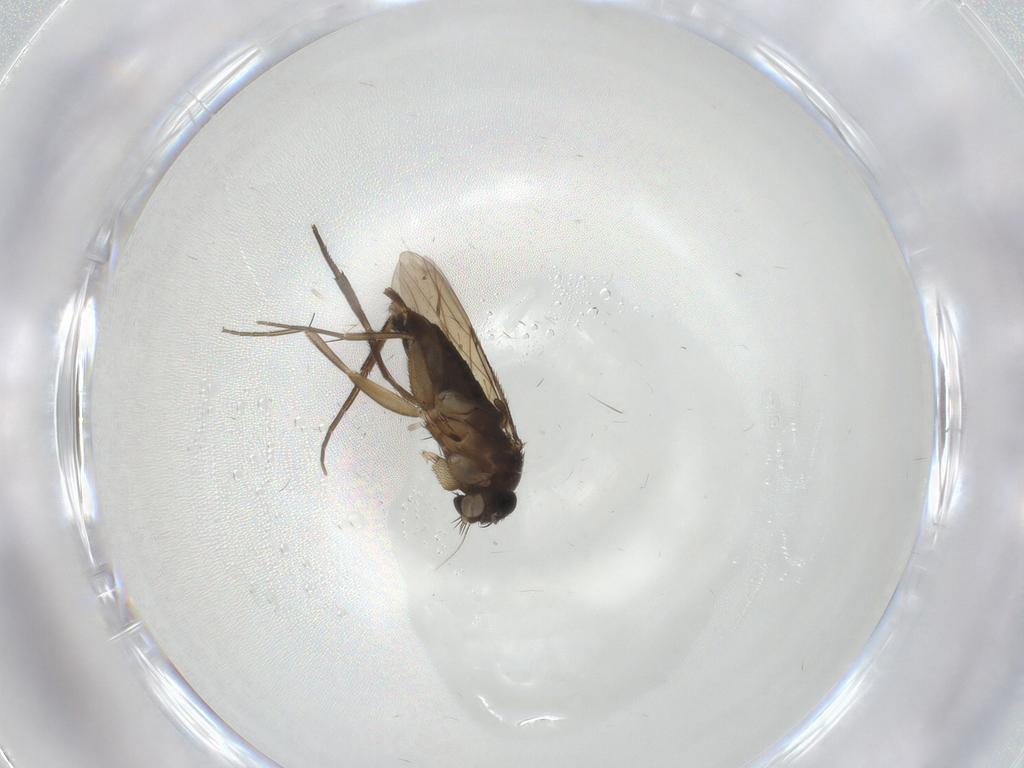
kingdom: Animalia
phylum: Arthropoda
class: Insecta
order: Diptera
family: Phoridae
